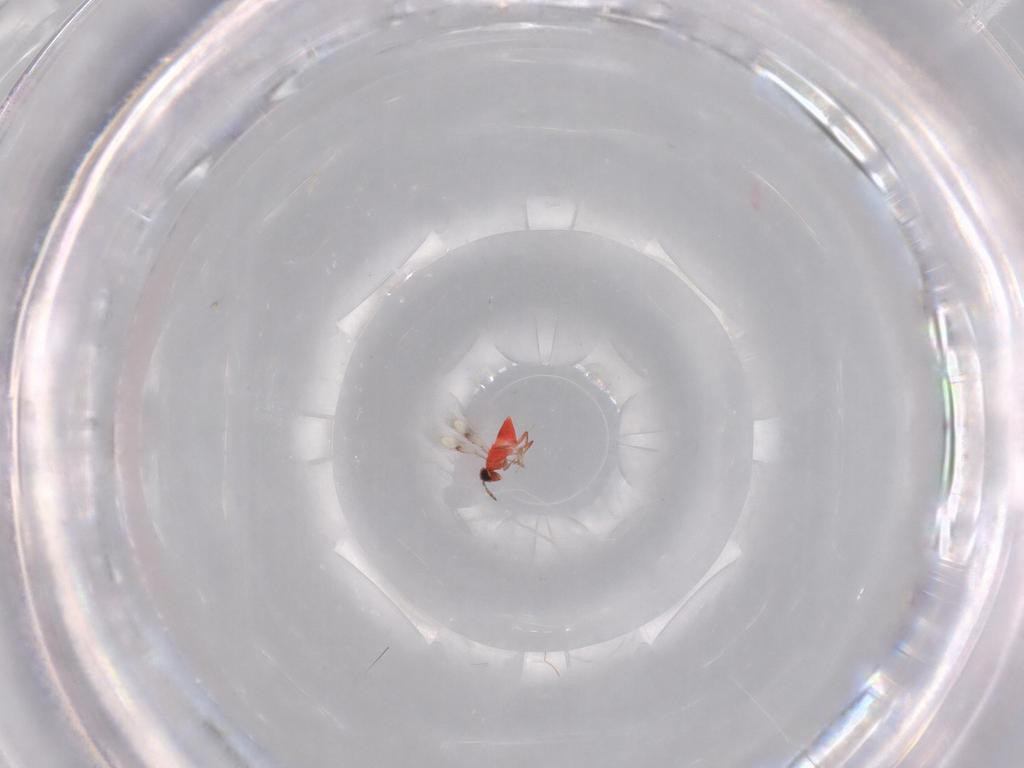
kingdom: Animalia
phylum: Arthropoda
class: Insecta
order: Hymenoptera
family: Trichogrammatidae
